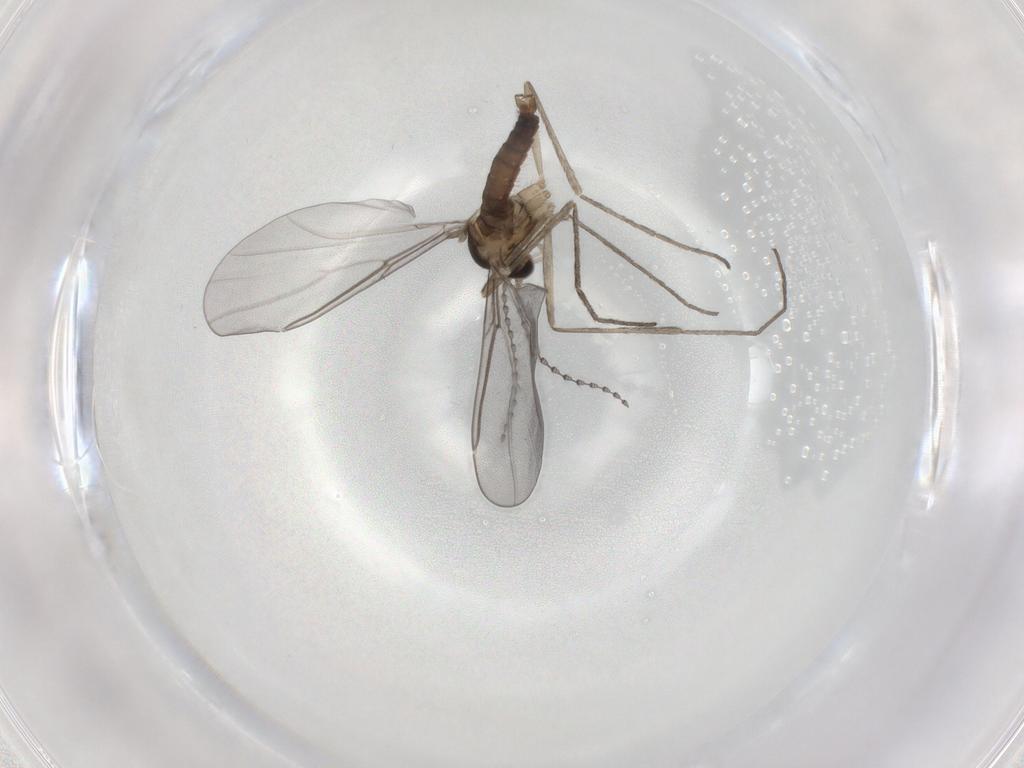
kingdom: Animalia
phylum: Arthropoda
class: Insecta
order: Diptera
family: Cecidomyiidae
